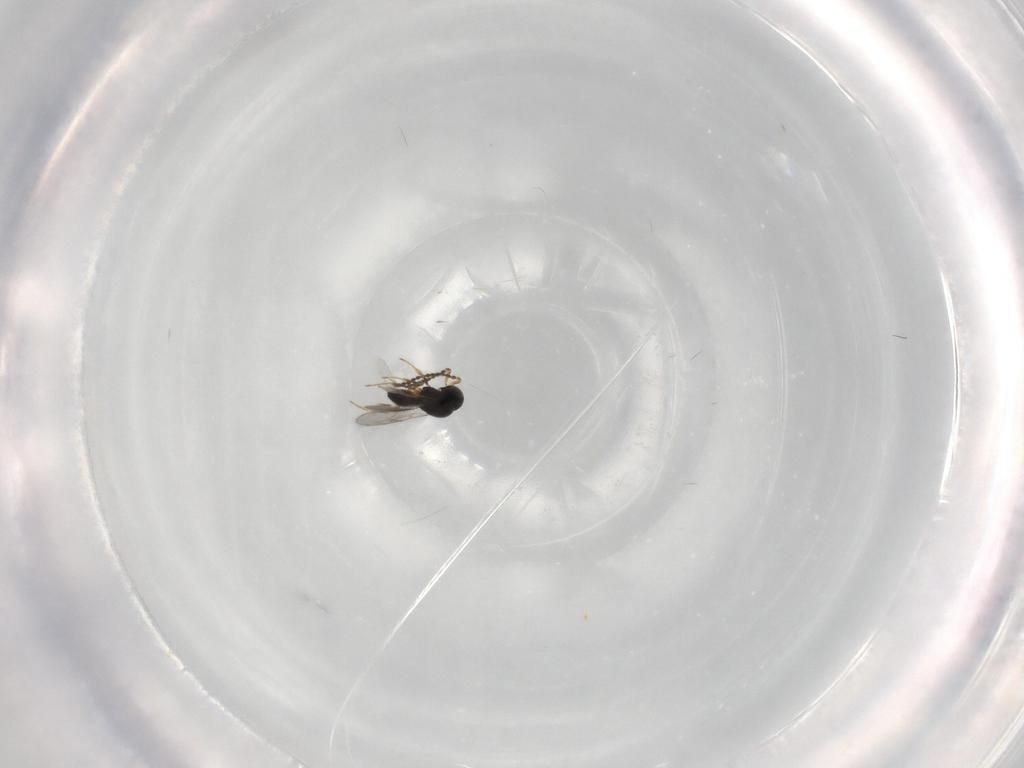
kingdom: Animalia
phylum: Arthropoda
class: Insecta
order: Hymenoptera
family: Scelionidae
